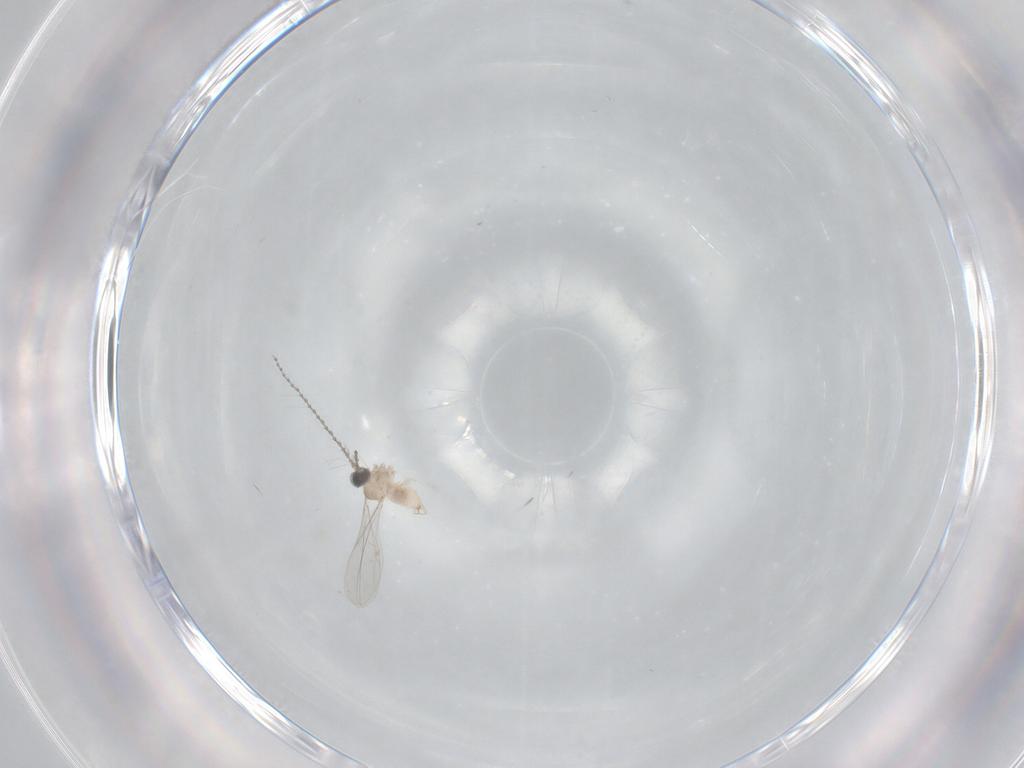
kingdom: Animalia
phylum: Arthropoda
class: Insecta
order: Diptera
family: Cecidomyiidae
